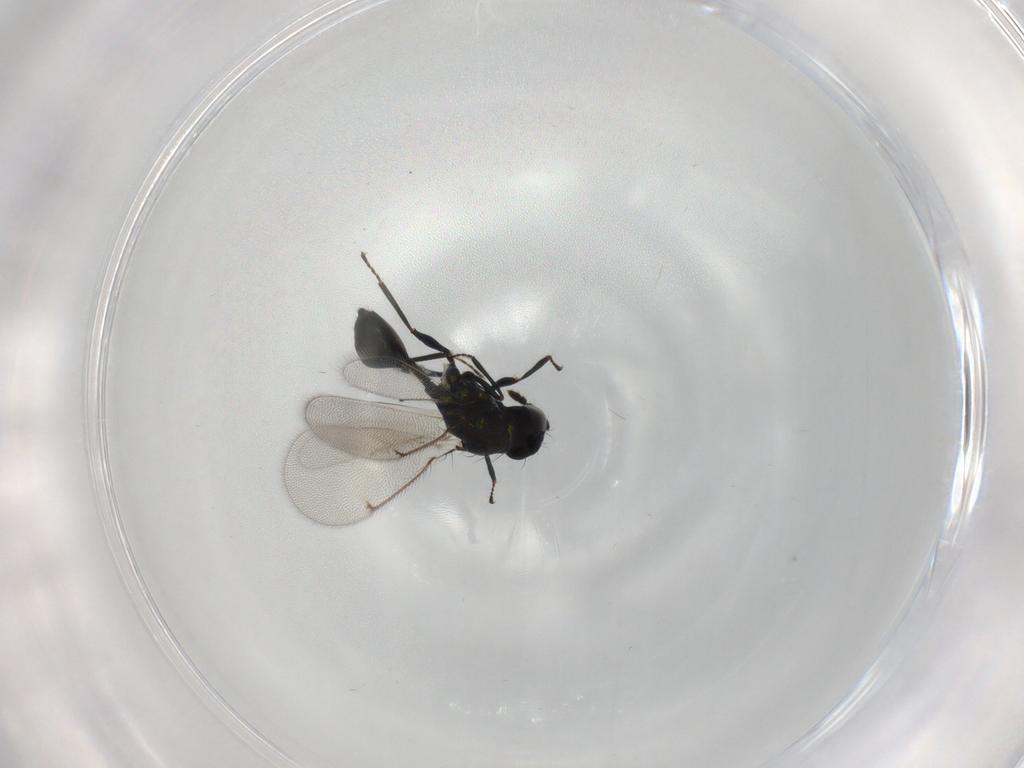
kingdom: Animalia
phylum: Arthropoda
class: Insecta
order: Hymenoptera
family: Eulophidae
